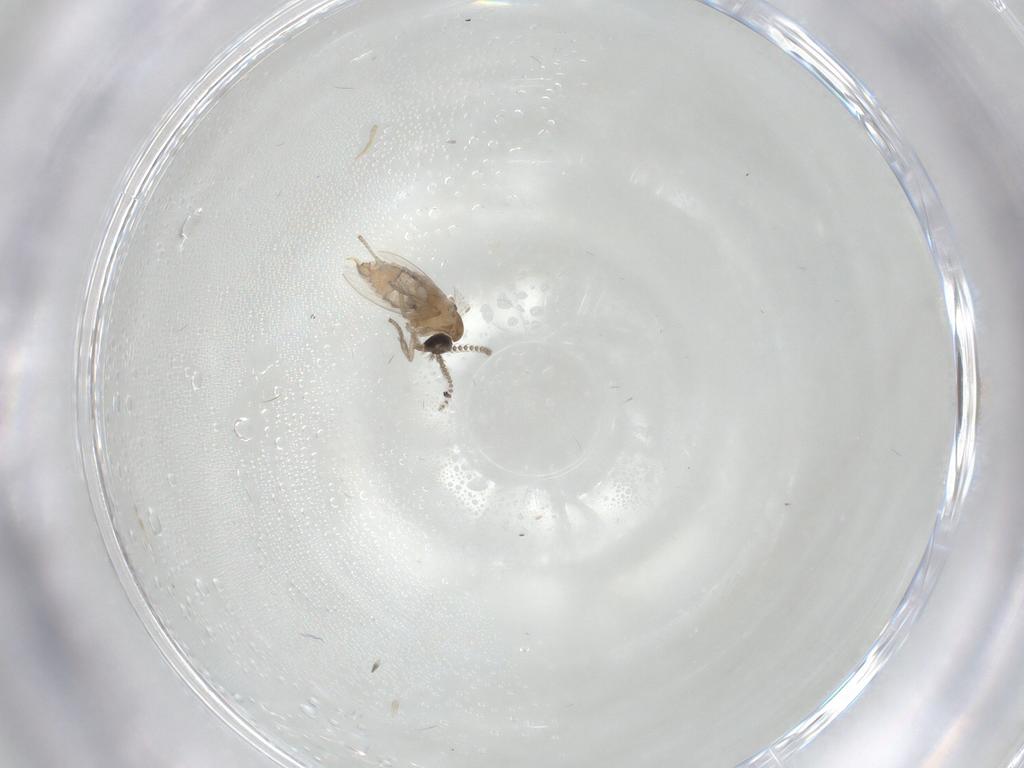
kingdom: Animalia
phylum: Arthropoda
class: Insecta
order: Diptera
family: Psychodidae
